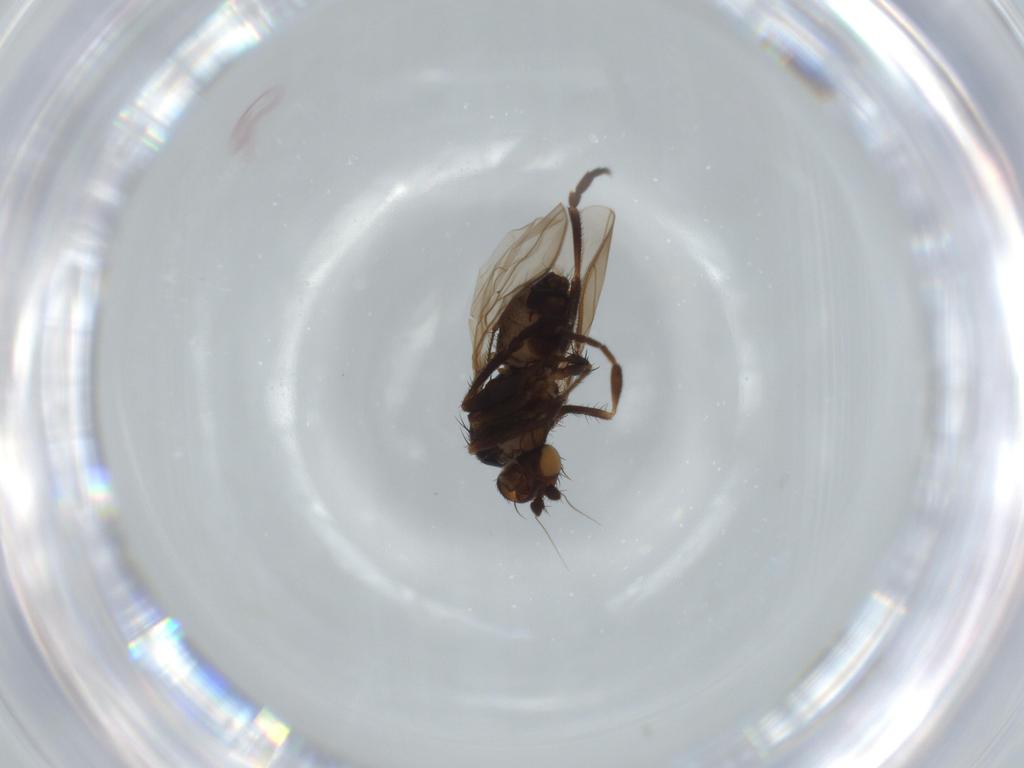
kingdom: Animalia
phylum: Arthropoda
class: Insecta
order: Diptera
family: Sphaeroceridae
